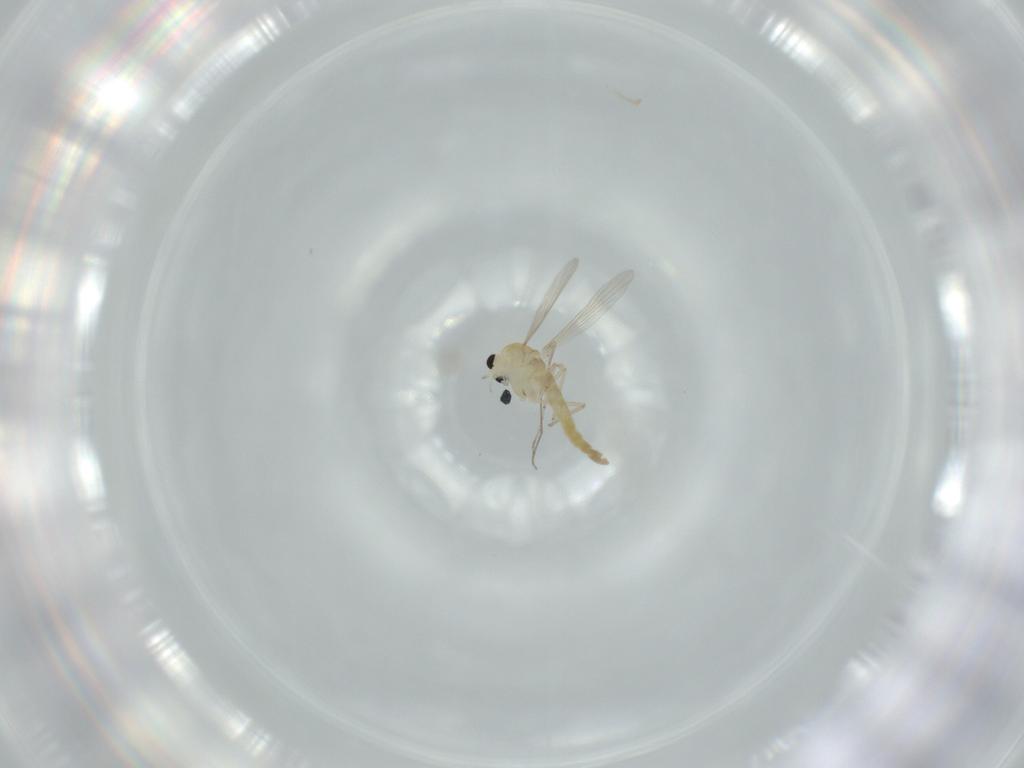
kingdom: Animalia
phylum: Arthropoda
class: Insecta
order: Diptera
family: Chironomidae
